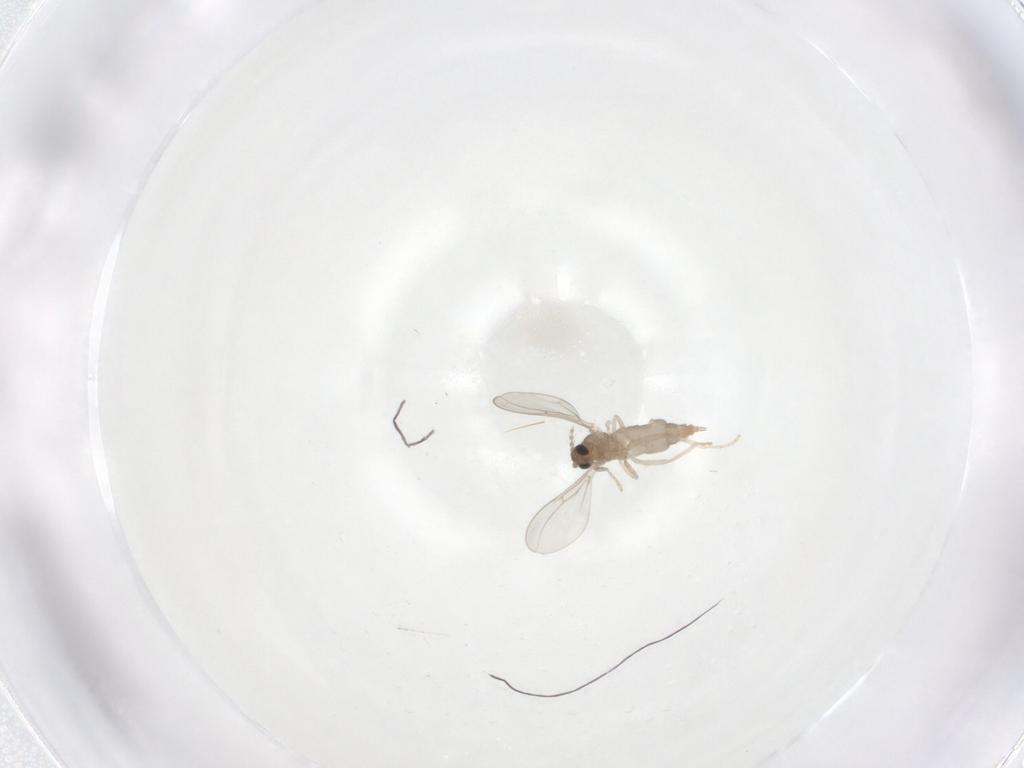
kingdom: Animalia
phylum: Arthropoda
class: Insecta
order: Diptera
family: Cecidomyiidae
